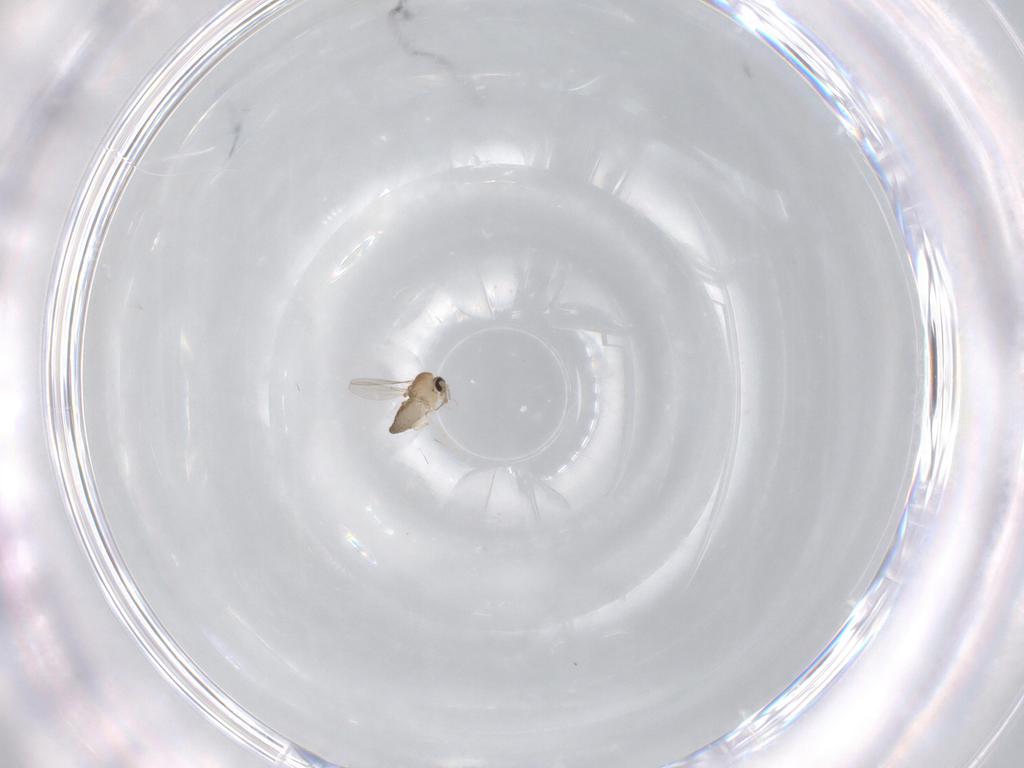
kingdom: Animalia
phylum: Arthropoda
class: Insecta
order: Diptera
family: Ceratopogonidae
